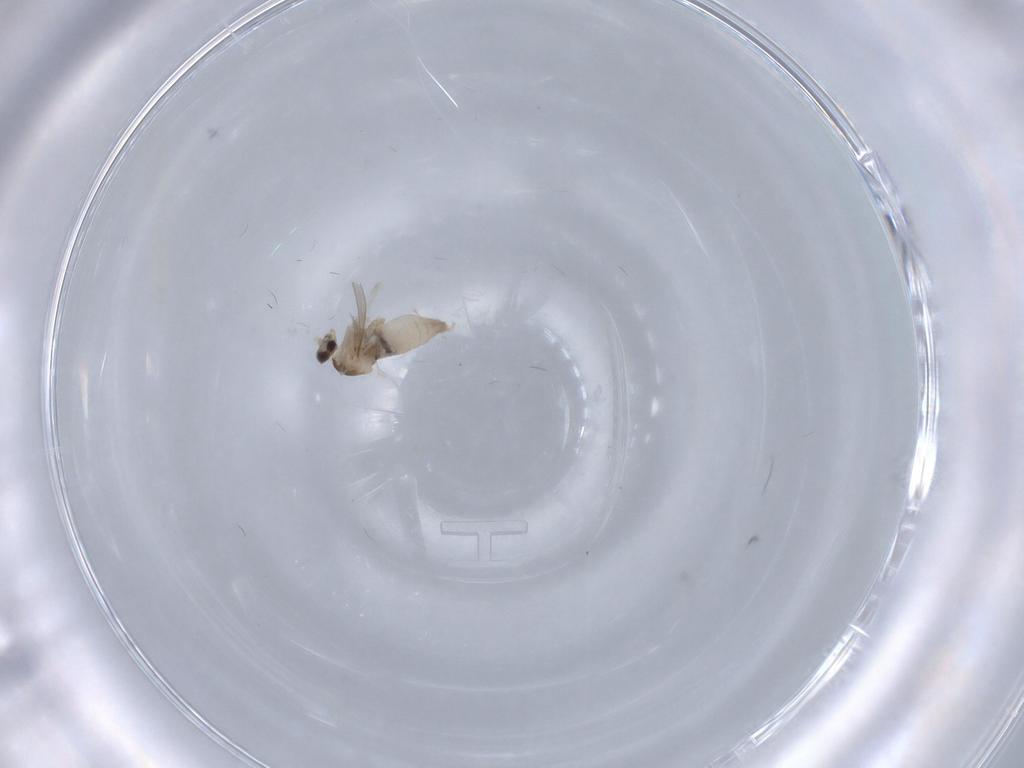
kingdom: Animalia
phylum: Arthropoda
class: Insecta
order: Diptera
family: Cecidomyiidae
